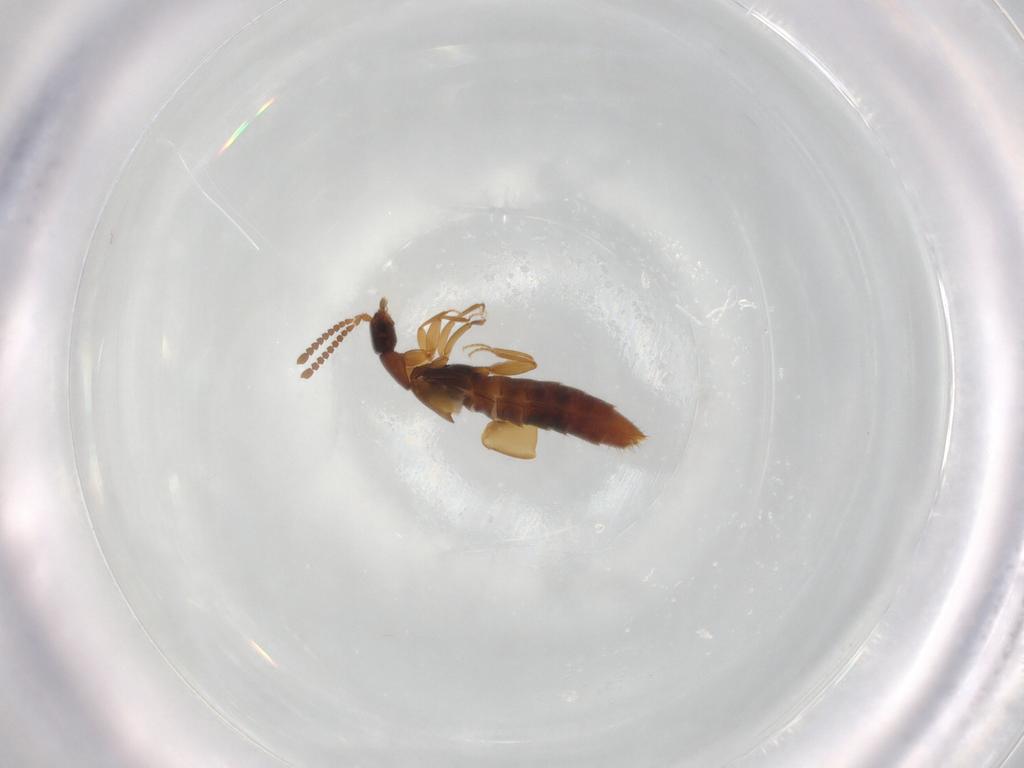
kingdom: Animalia
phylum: Arthropoda
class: Insecta
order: Coleoptera
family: Staphylinidae
